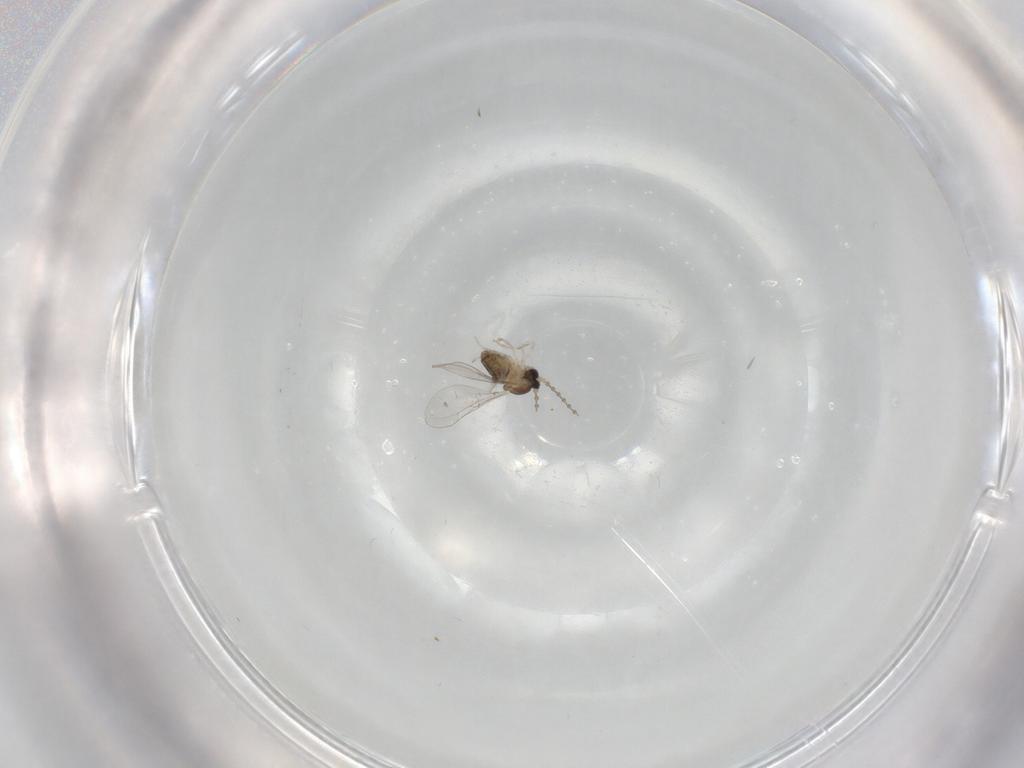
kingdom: Animalia
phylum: Arthropoda
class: Insecta
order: Diptera
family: Cecidomyiidae
